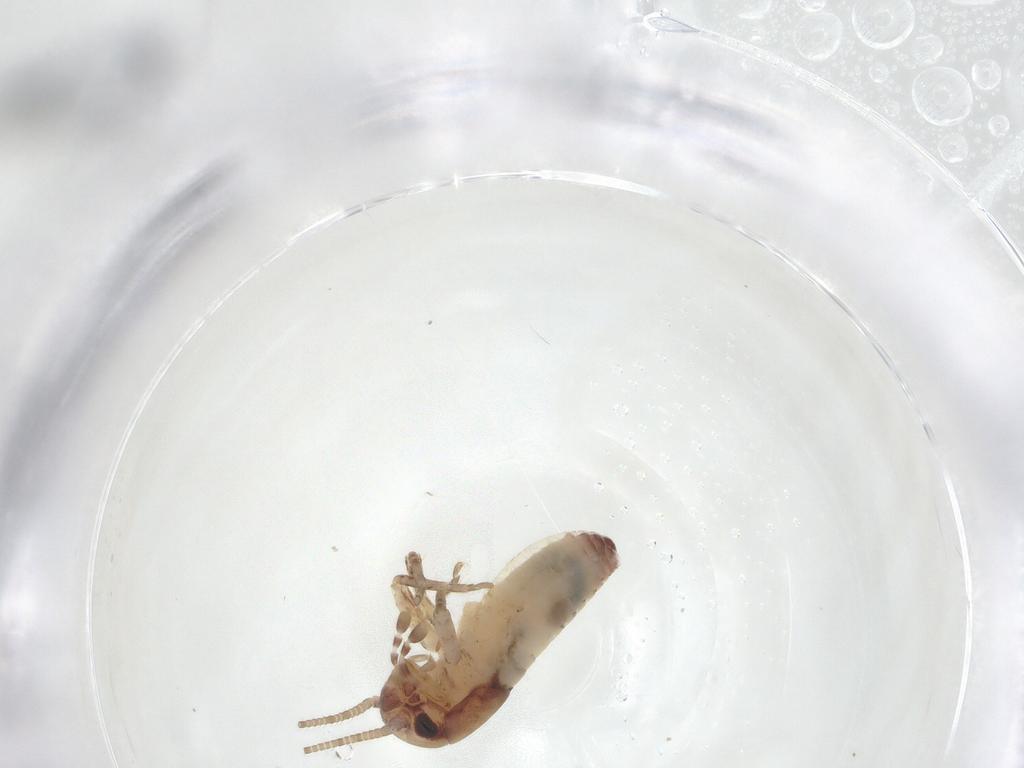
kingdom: Animalia
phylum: Arthropoda
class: Insecta
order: Orthoptera
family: Mogoplistidae
